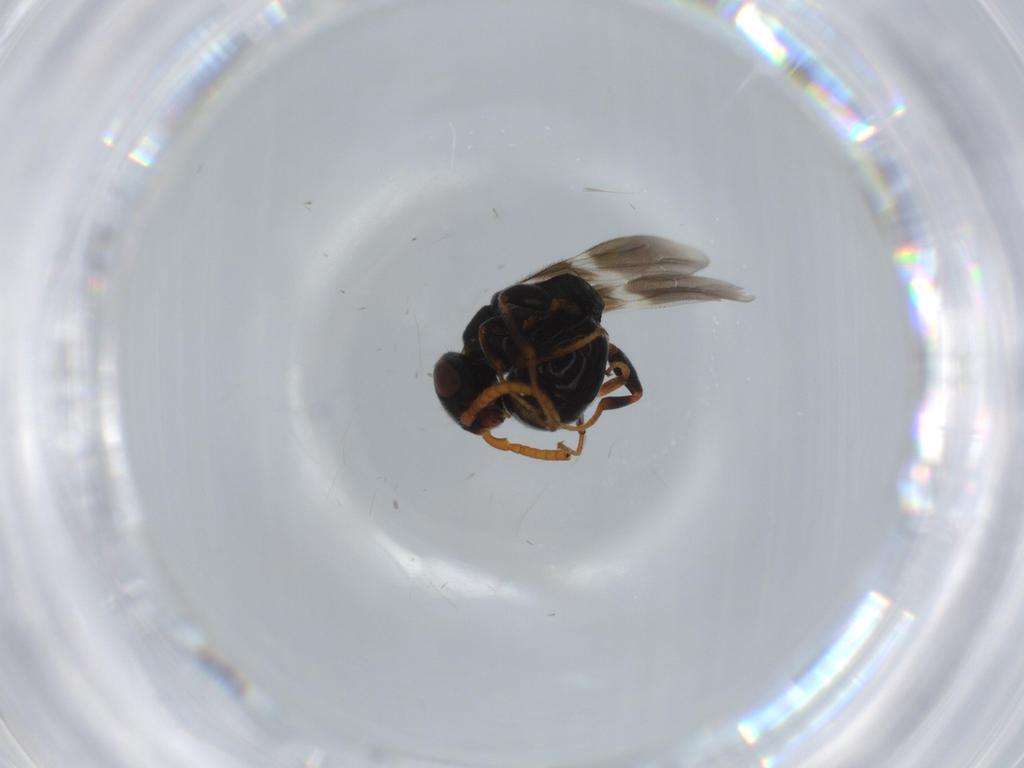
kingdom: Animalia
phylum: Arthropoda
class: Insecta
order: Hymenoptera
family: Bethylidae
